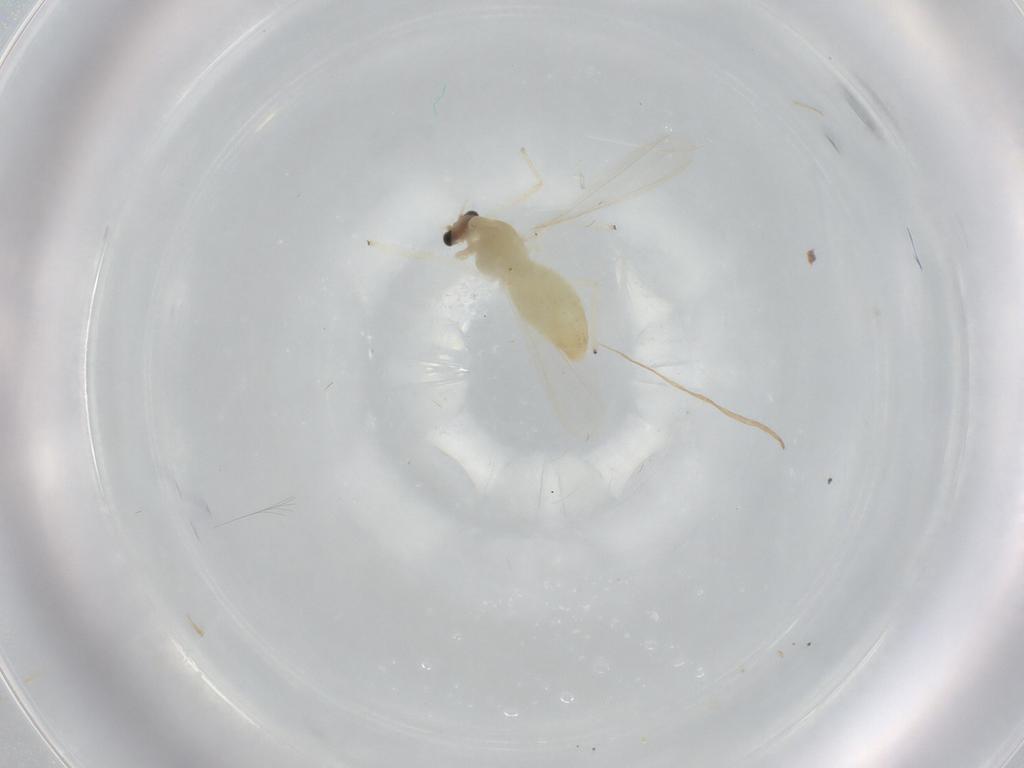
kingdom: Animalia
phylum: Arthropoda
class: Insecta
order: Diptera
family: Chironomidae
